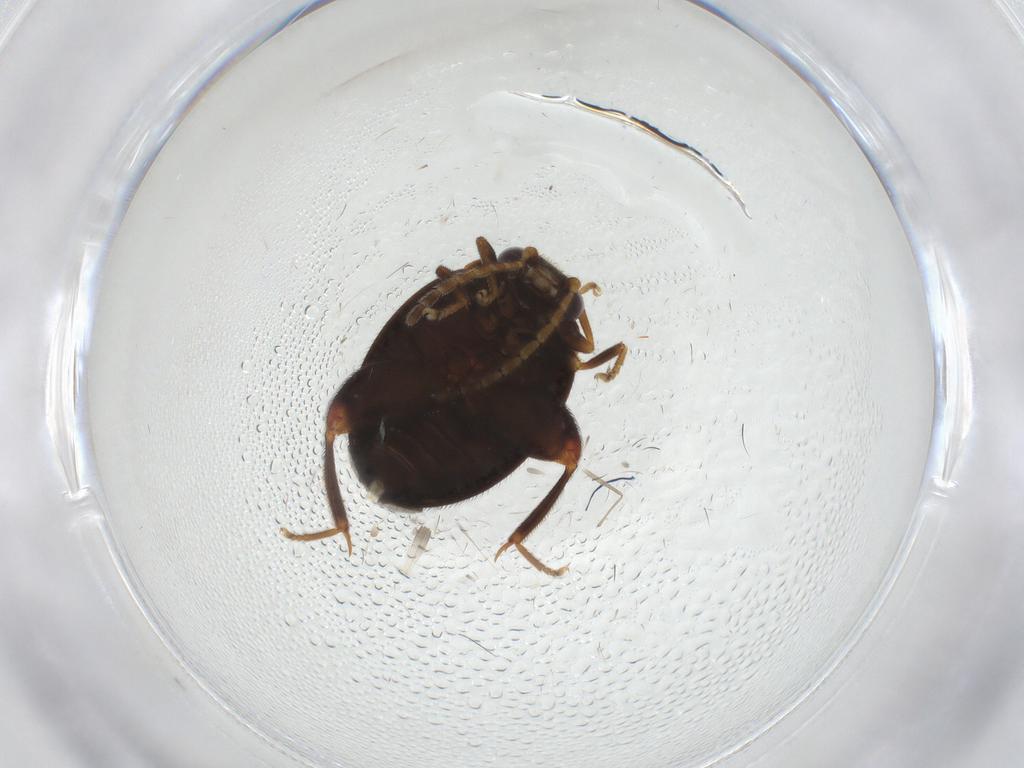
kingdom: Animalia
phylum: Arthropoda
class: Insecta
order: Coleoptera
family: Scirtidae
